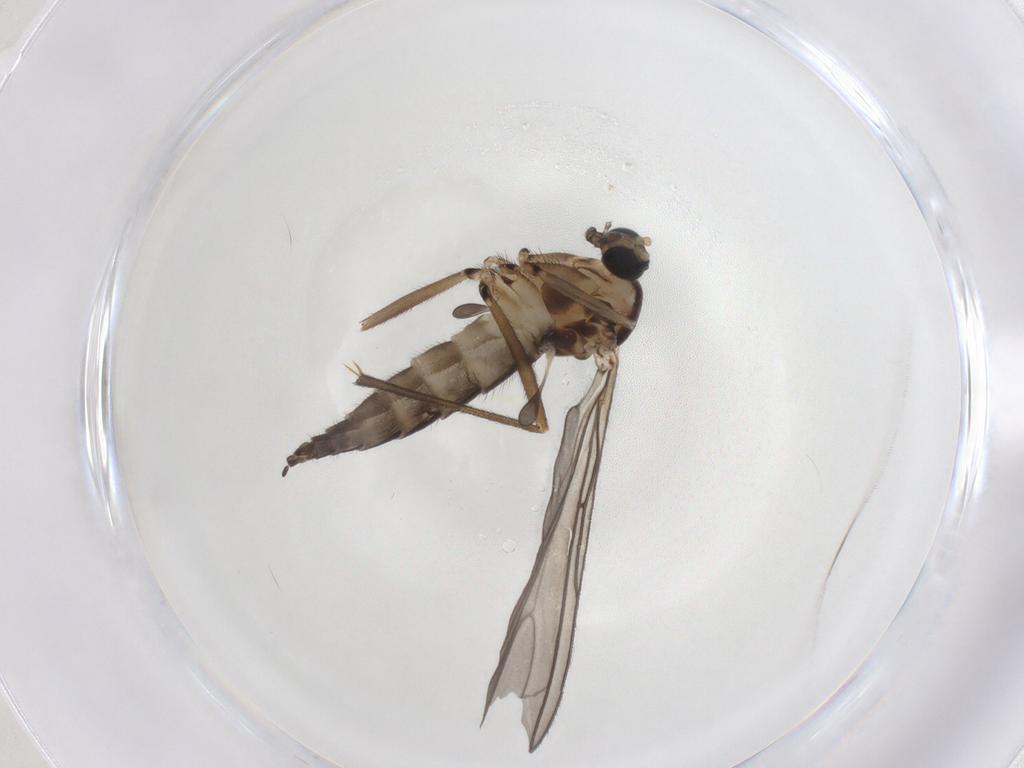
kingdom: Animalia
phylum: Arthropoda
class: Insecta
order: Diptera
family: Sciaridae
